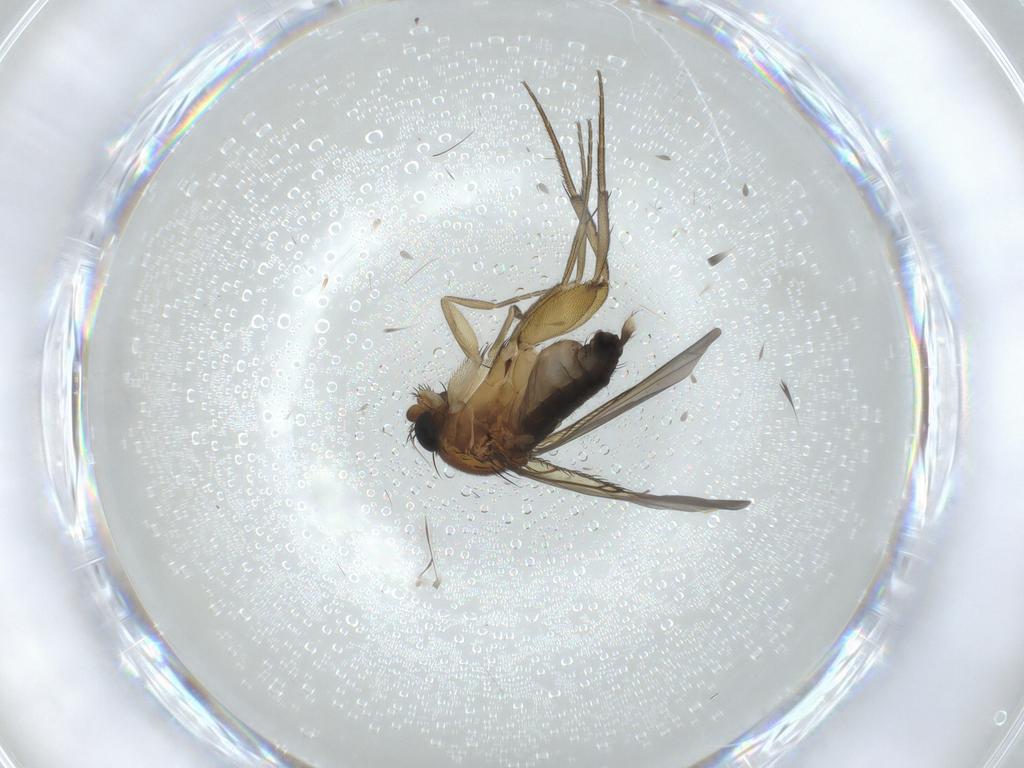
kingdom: Animalia
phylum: Arthropoda
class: Insecta
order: Diptera
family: Phoridae
